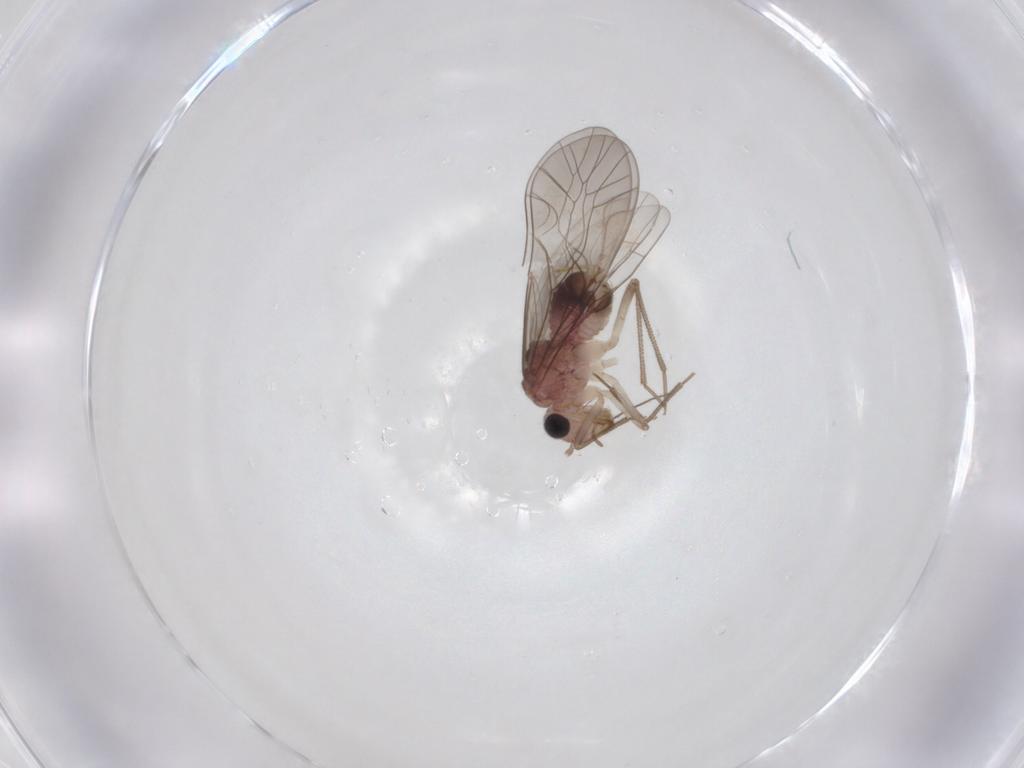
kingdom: Animalia
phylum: Arthropoda
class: Insecta
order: Psocodea
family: Lachesillidae
